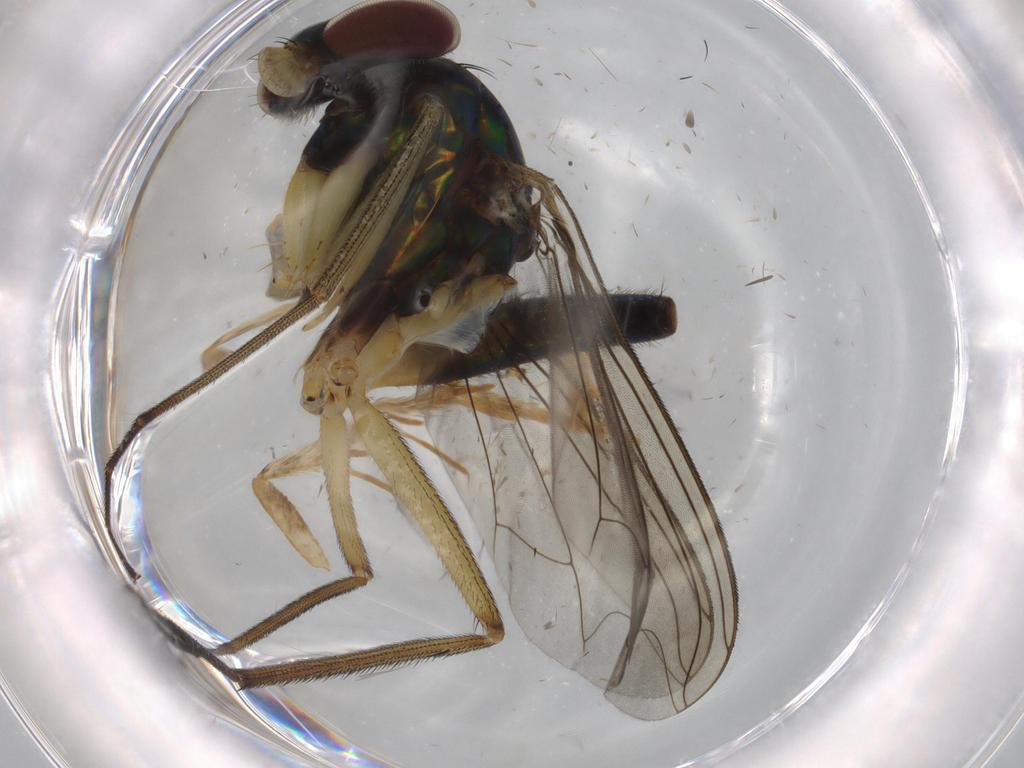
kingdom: Animalia
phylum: Arthropoda
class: Insecta
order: Diptera
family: Dolichopodidae
